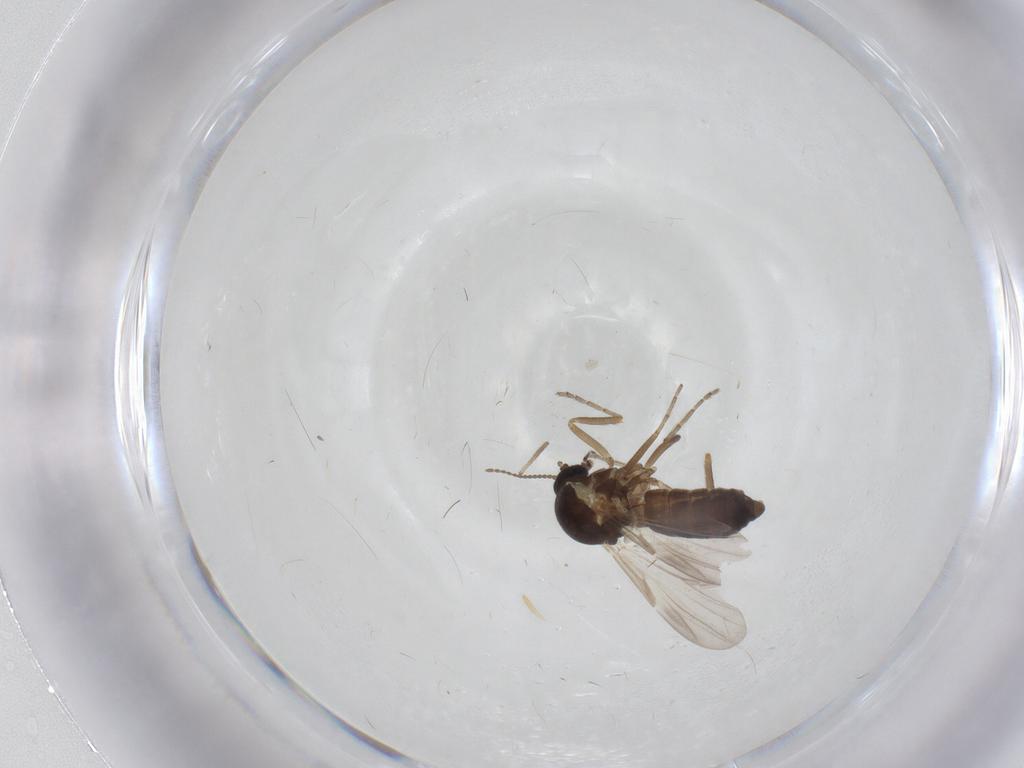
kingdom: Animalia
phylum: Arthropoda
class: Insecta
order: Diptera
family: Ceratopogonidae
